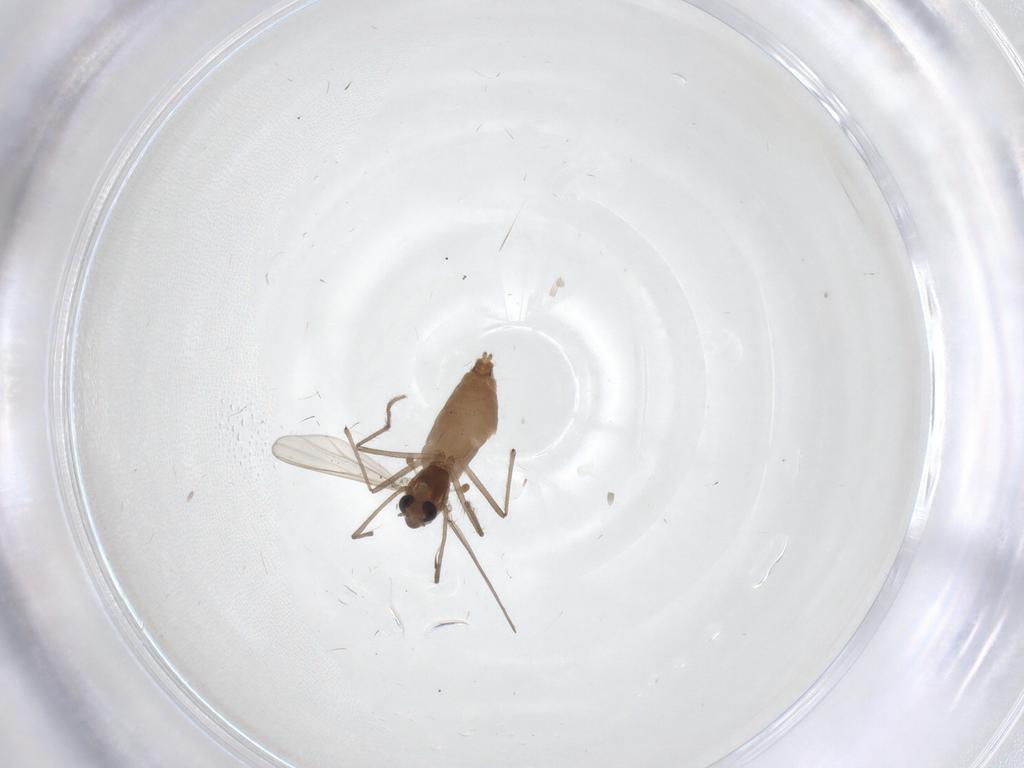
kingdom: Animalia
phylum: Arthropoda
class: Insecta
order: Diptera
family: Chironomidae
